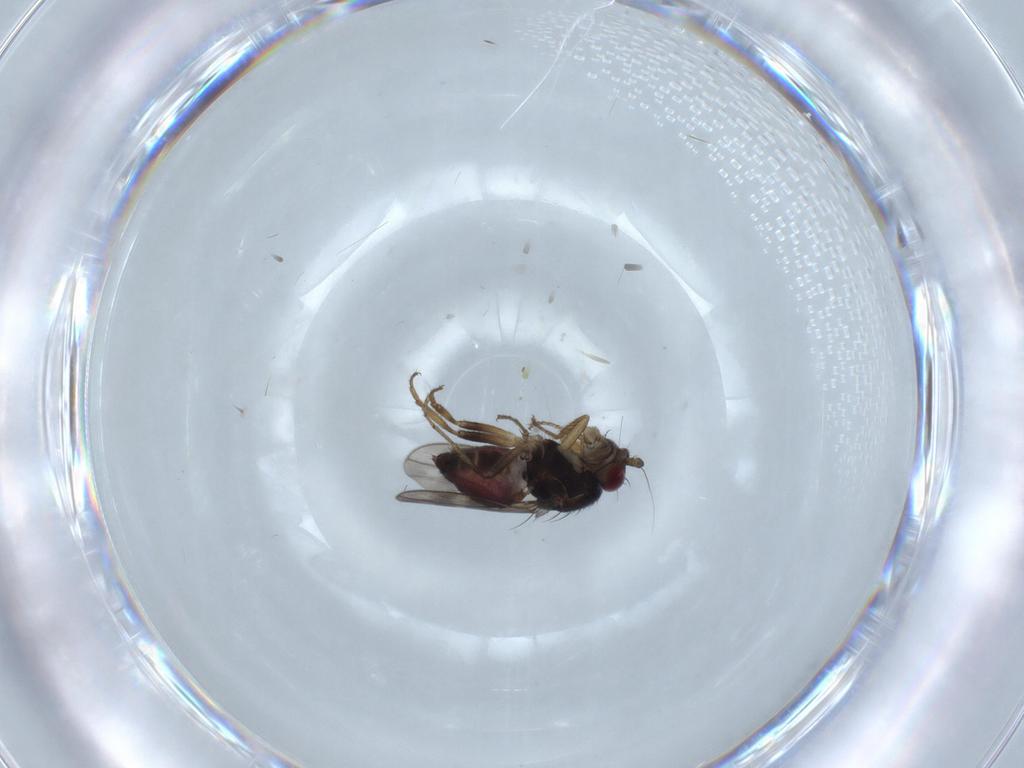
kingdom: Animalia
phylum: Arthropoda
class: Insecta
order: Diptera
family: Sphaeroceridae
